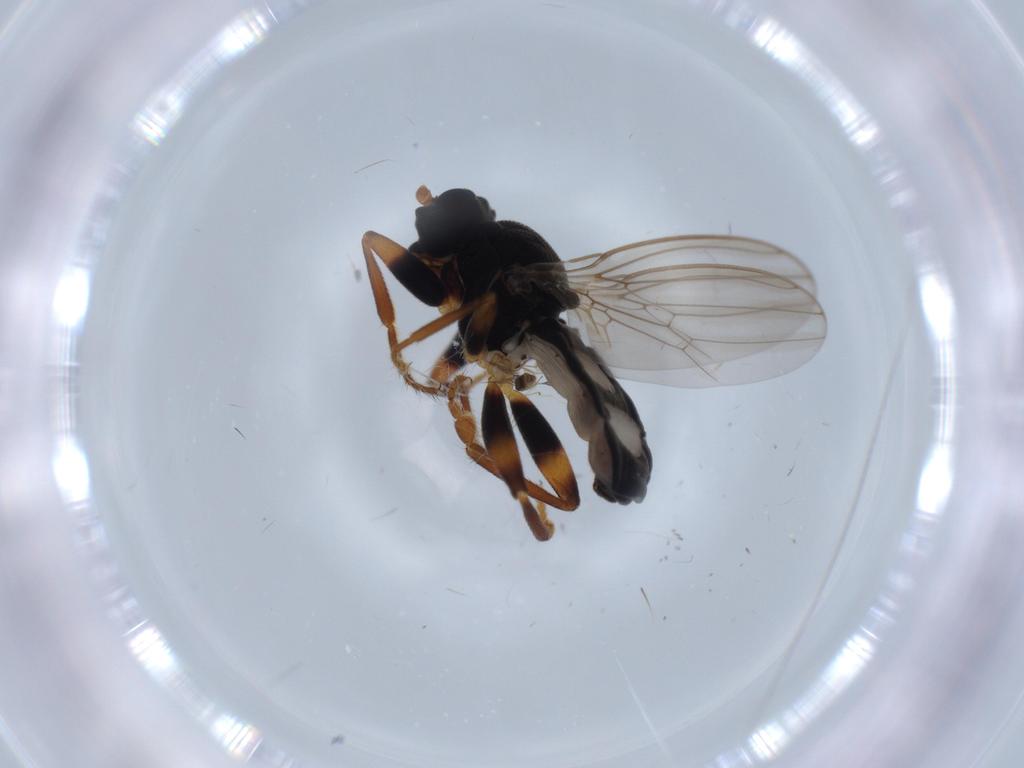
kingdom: Animalia
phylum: Arthropoda
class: Insecta
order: Diptera
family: Sphaeroceridae
